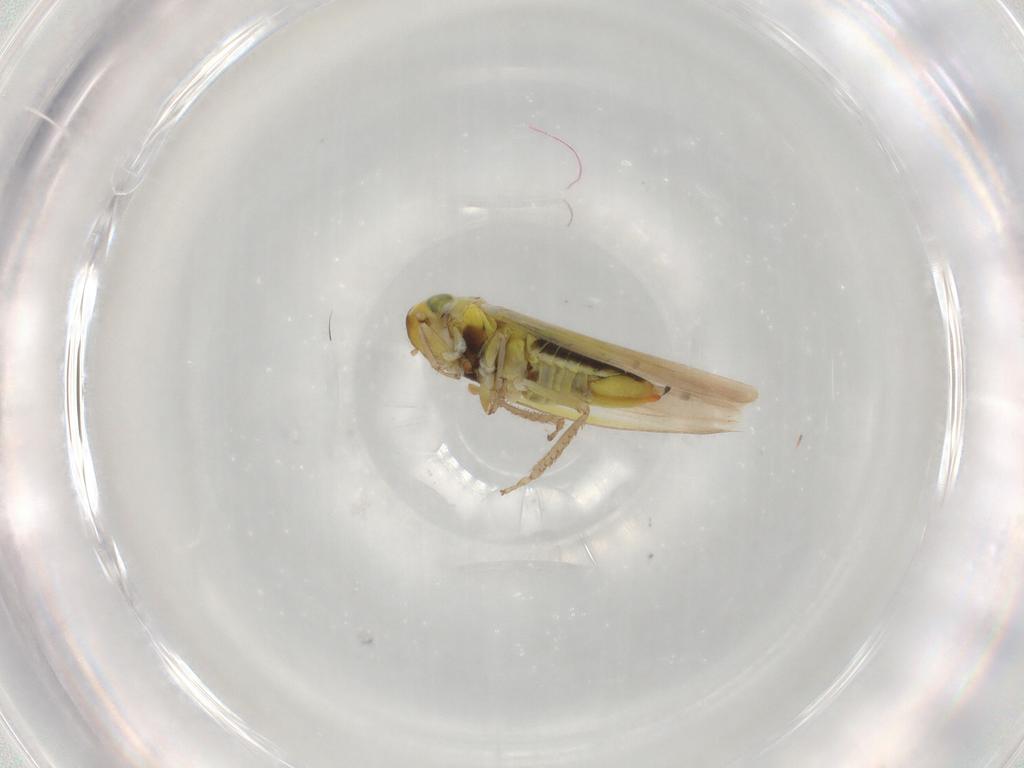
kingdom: Animalia
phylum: Arthropoda
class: Insecta
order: Hemiptera
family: Cicadellidae
